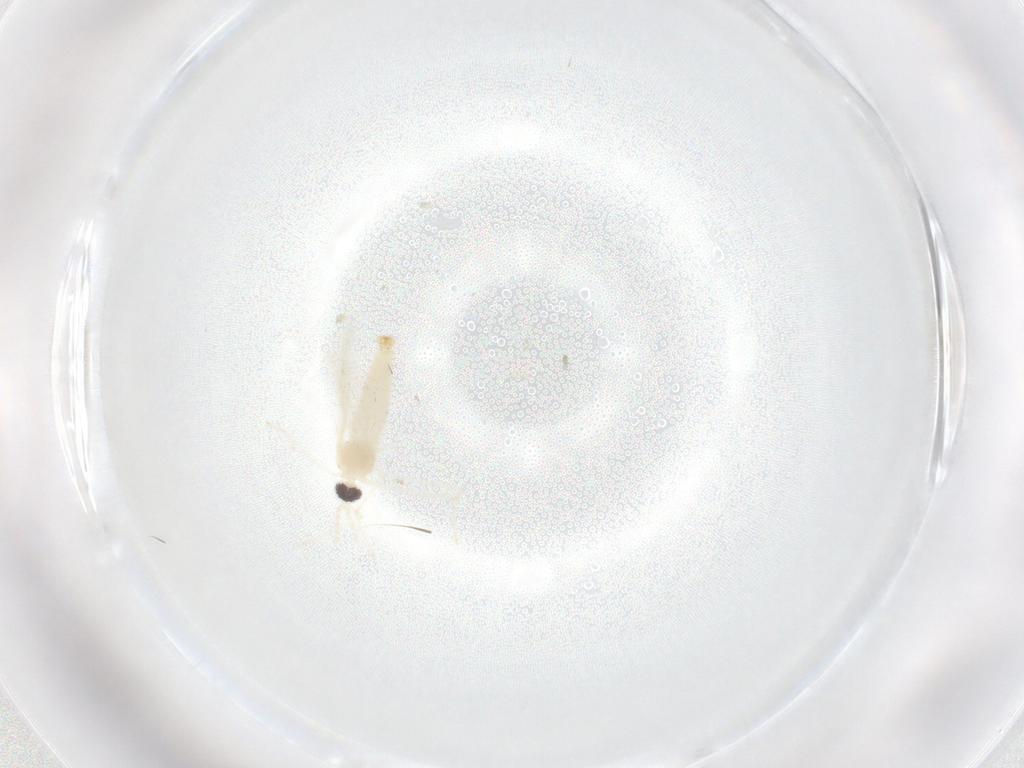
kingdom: Animalia
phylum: Arthropoda
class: Insecta
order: Diptera
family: Cecidomyiidae
